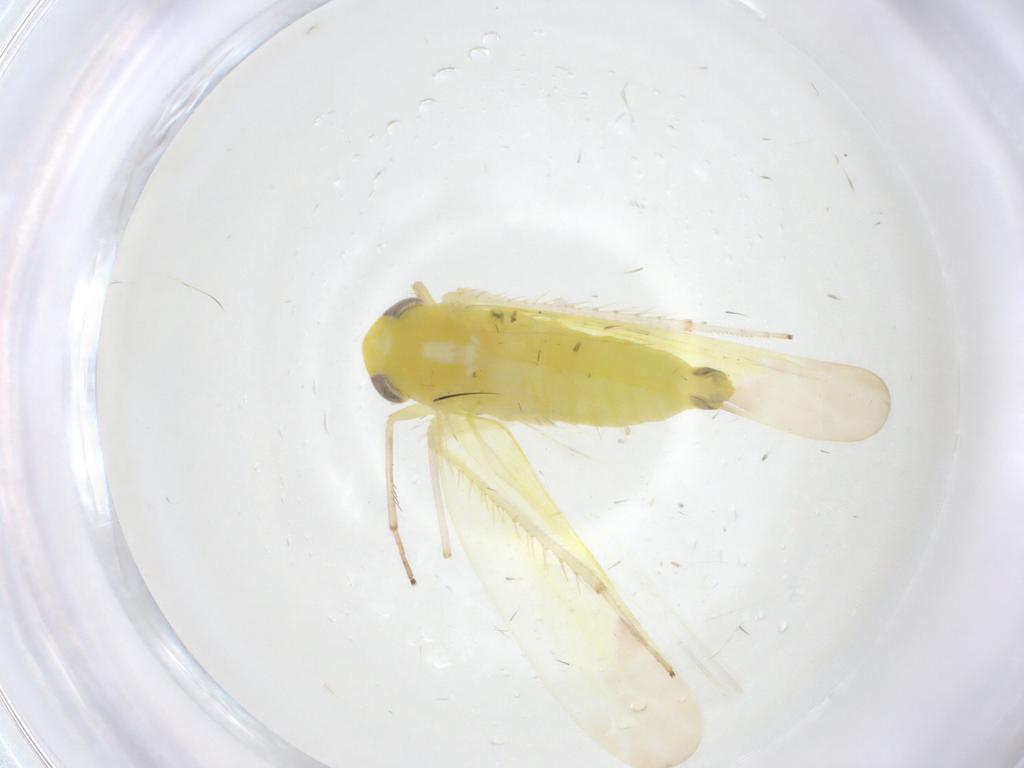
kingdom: Animalia
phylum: Arthropoda
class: Insecta
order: Hemiptera
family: Cicadellidae
